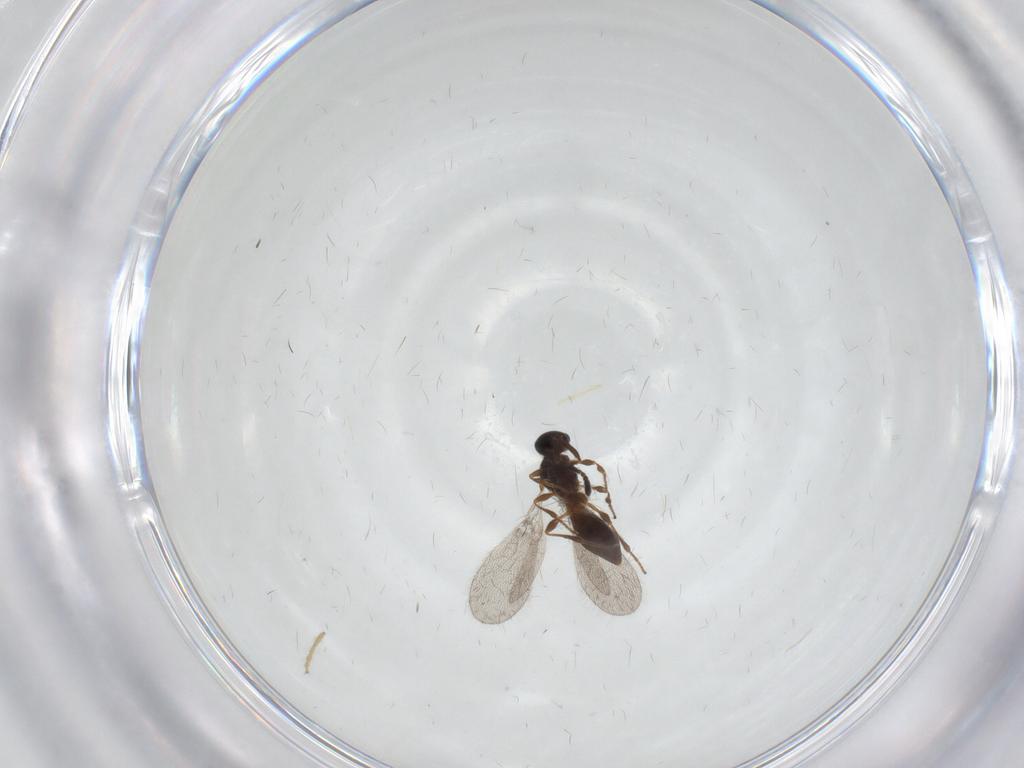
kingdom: Animalia
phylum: Arthropoda
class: Insecta
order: Hymenoptera
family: Platygastridae
